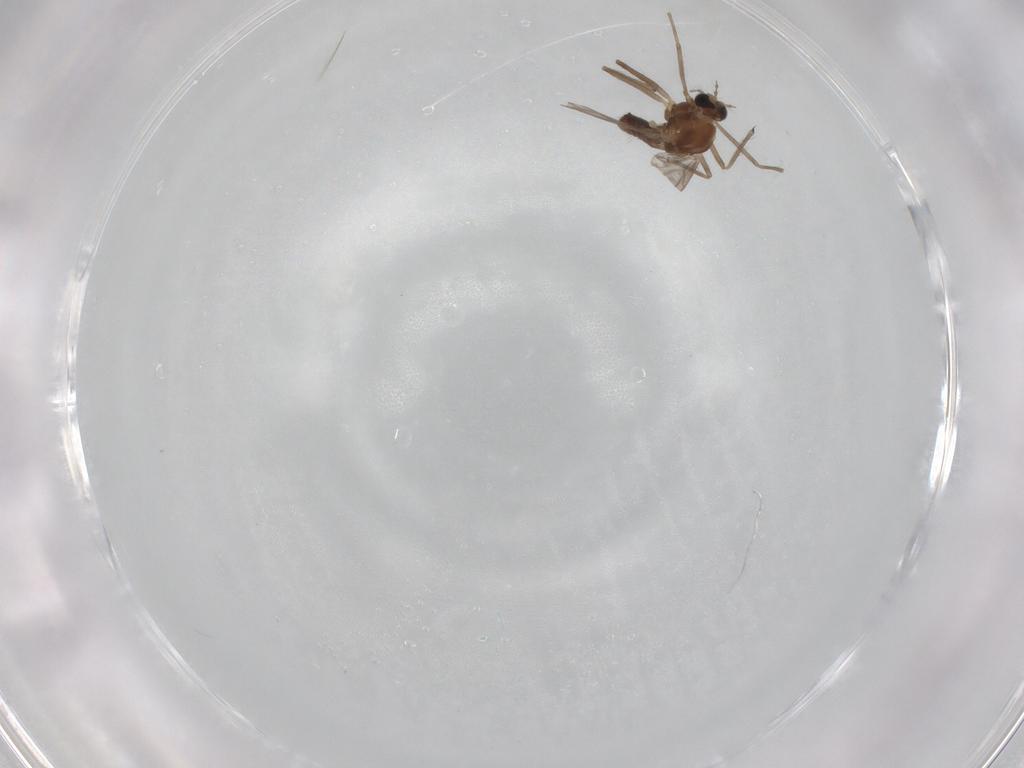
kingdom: Animalia
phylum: Arthropoda
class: Insecta
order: Diptera
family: Chironomidae
